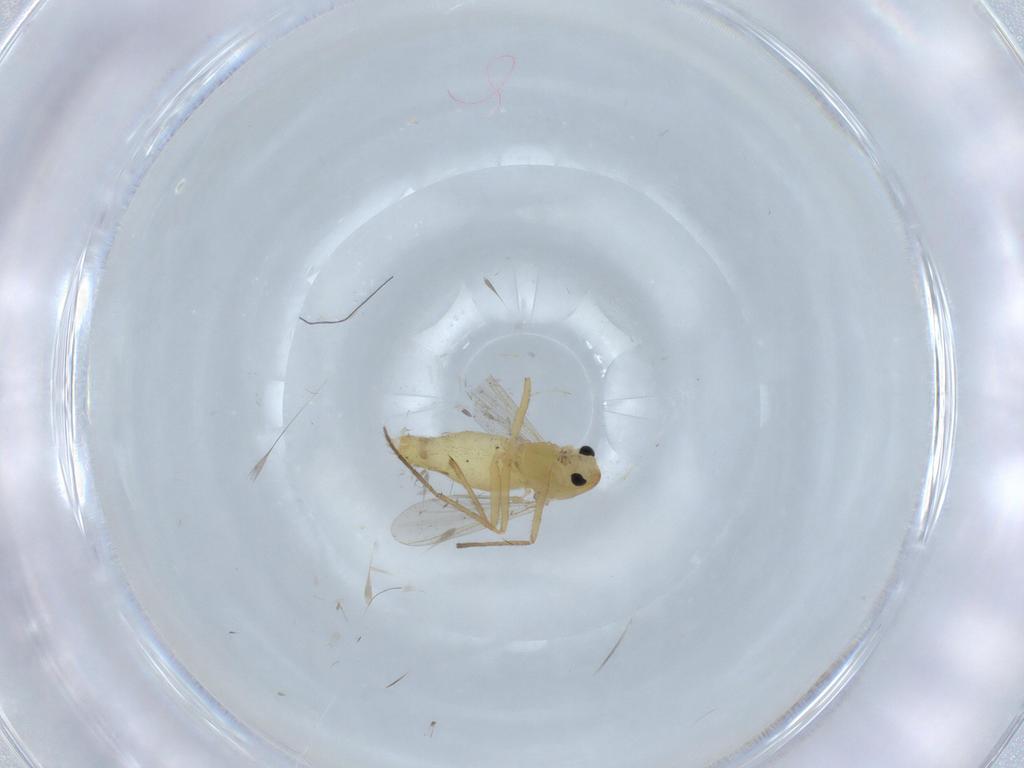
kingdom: Animalia
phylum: Arthropoda
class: Insecta
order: Diptera
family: Chironomidae
